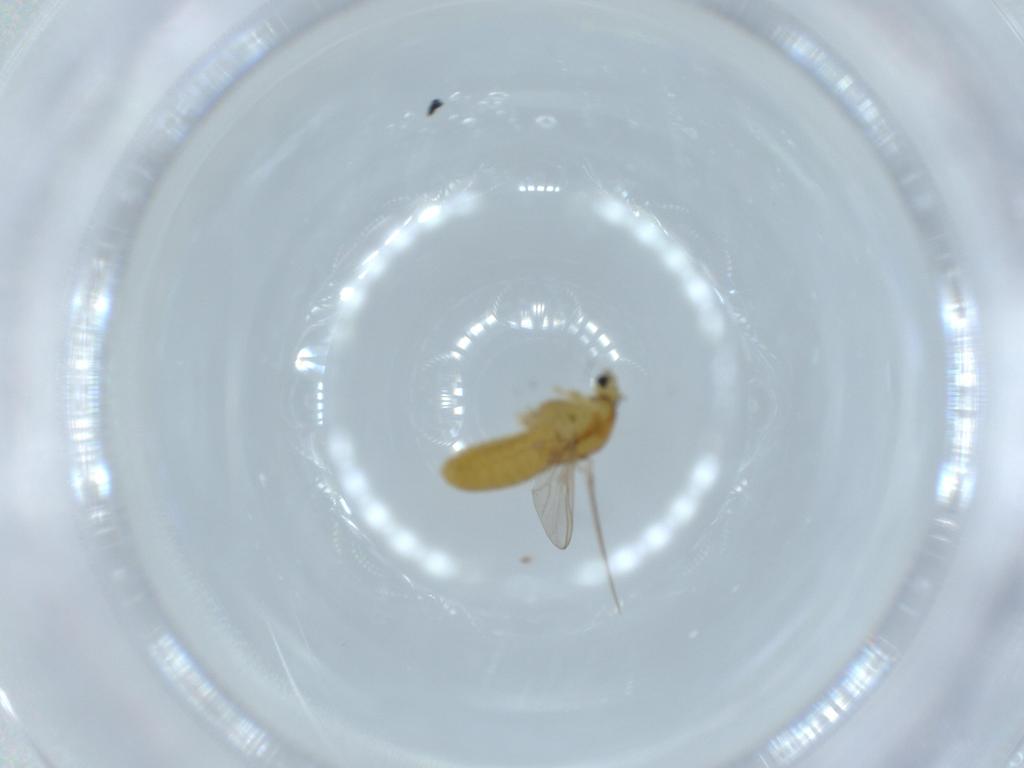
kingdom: Animalia
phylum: Arthropoda
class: Insecta
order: Diptera
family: Chironomidae
